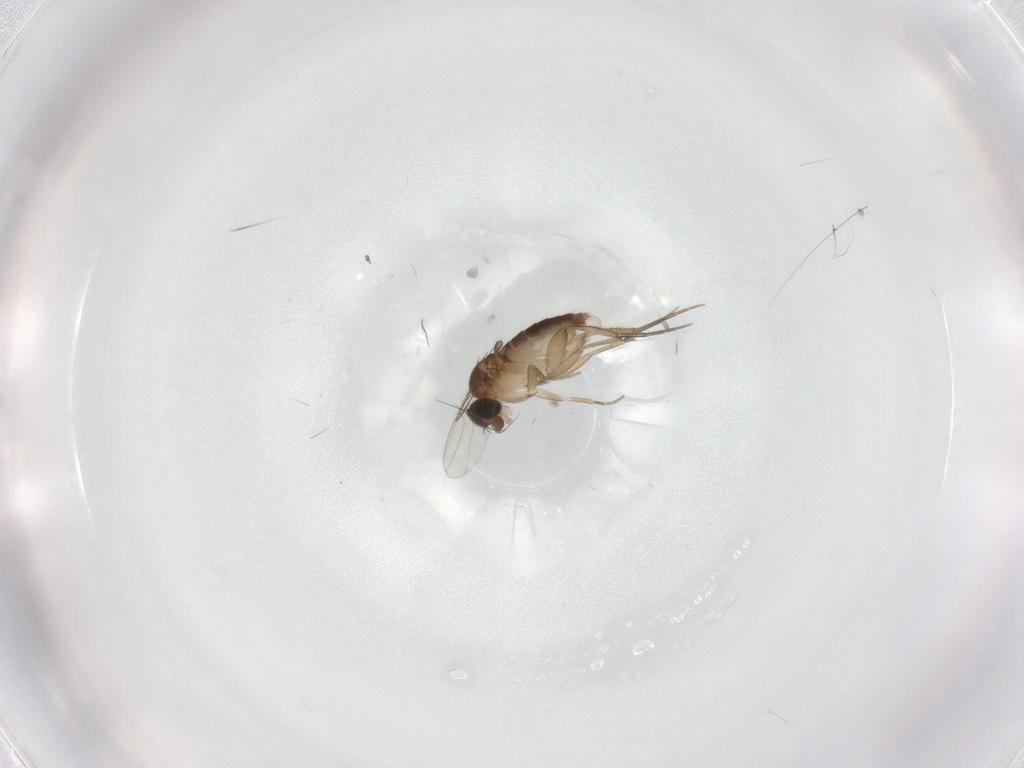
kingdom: Animalia
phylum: Arthropoda
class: Insecta
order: Diptera
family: Phoridae
